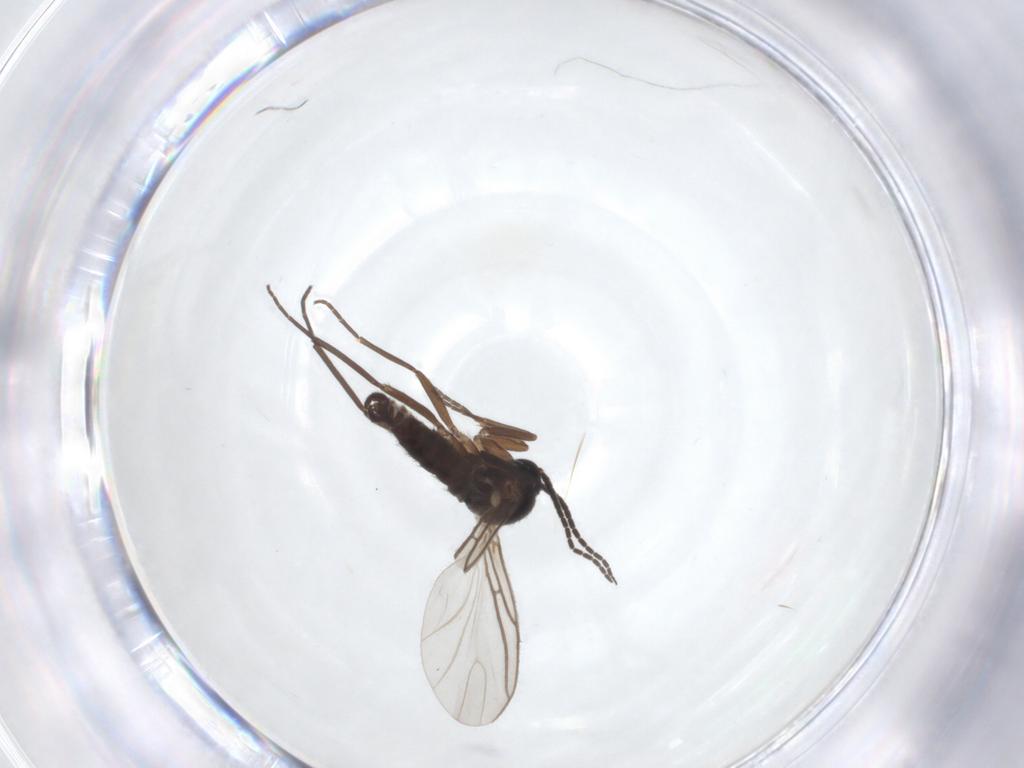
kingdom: Animalia
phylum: Arthropoda
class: Insecta
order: Diptera
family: Sciaridae
